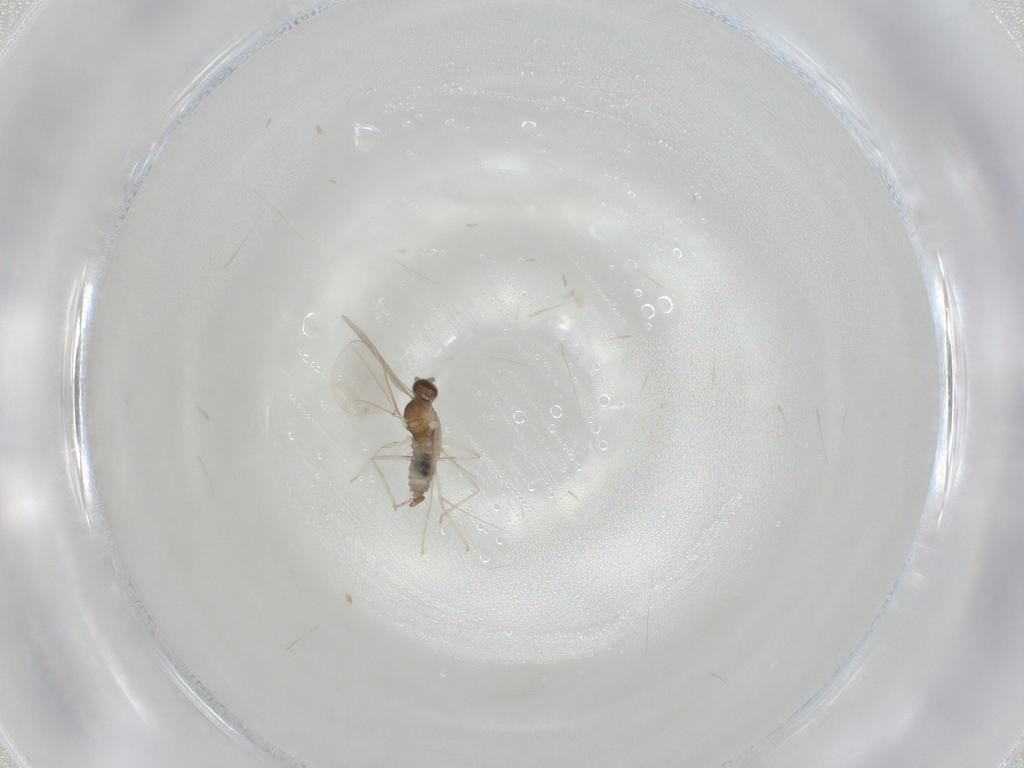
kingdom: Animalia
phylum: Arthropoda
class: Insecta
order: Diptera
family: Cecidomyiidae
